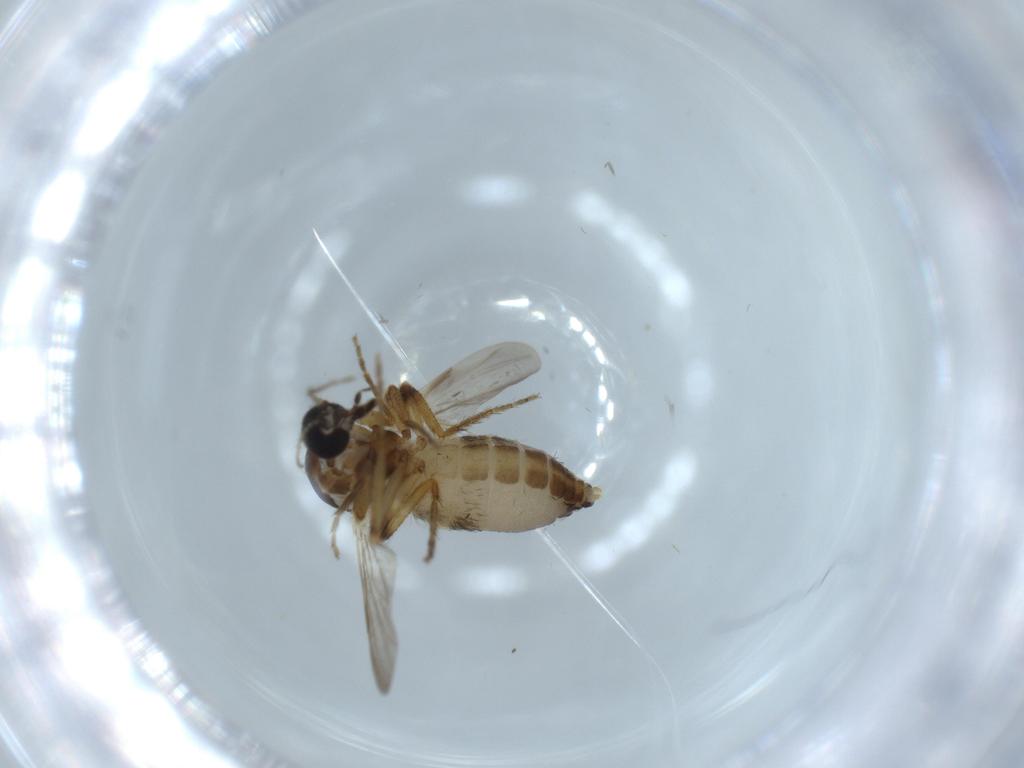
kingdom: Animalia
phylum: Arthropoda
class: Insecta
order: Diptera
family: Ceratopogonidae
